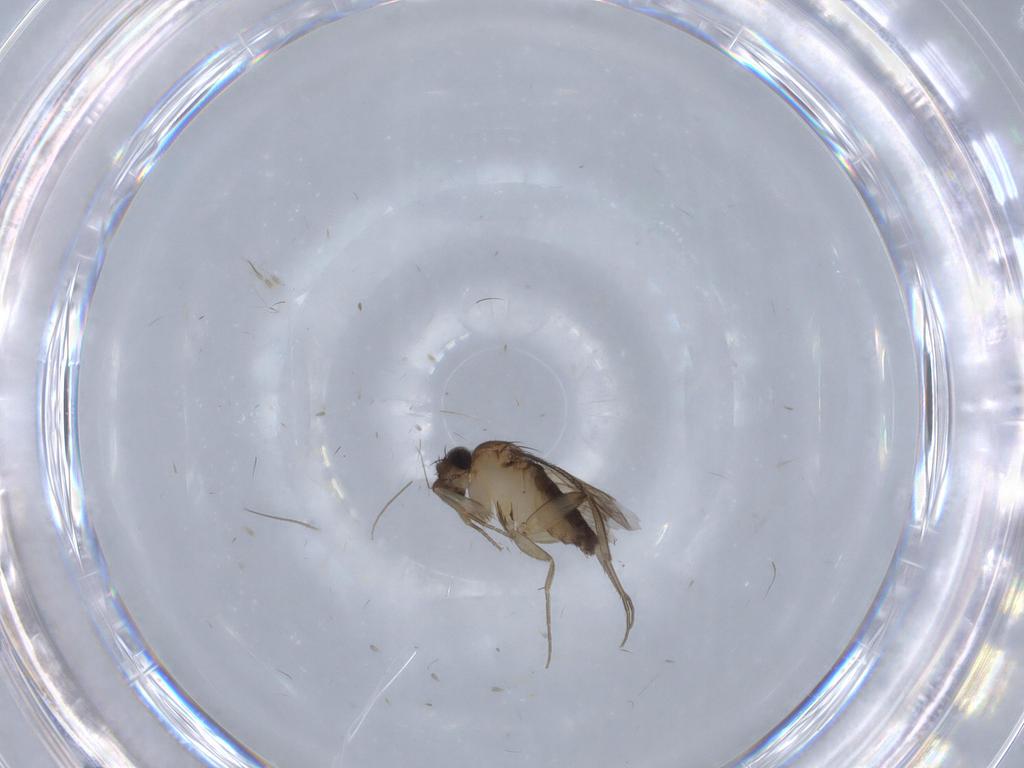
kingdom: Animalia
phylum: Arthropoda
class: Insecta
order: Diptera
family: Phoridae
